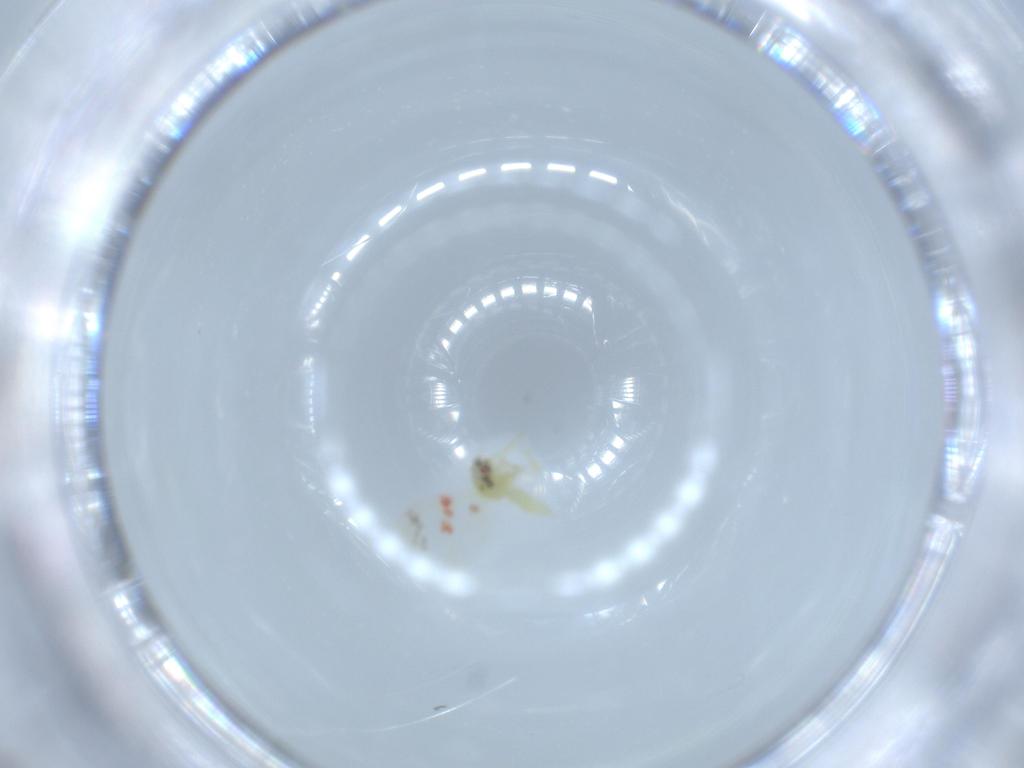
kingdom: Animalia
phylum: Arthropoda
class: Insecta
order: Hemiptera
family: Aleyrodidae
